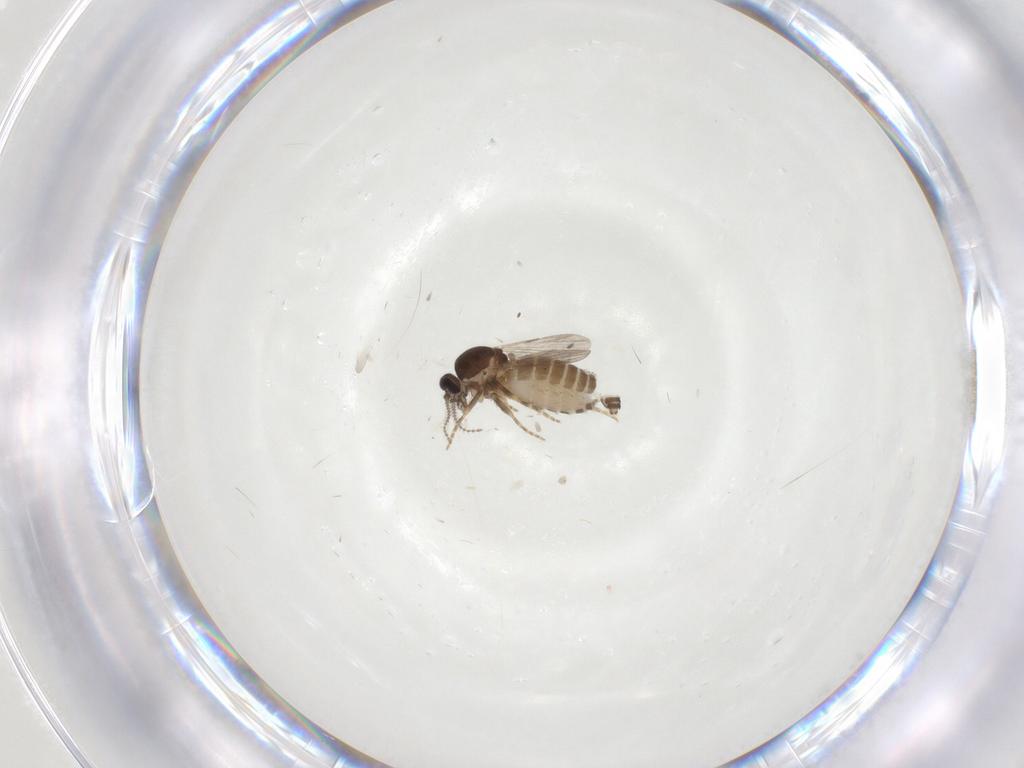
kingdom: Animalia
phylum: Arthropoda
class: Insecta
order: Diptera
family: Ceratopogonidae
